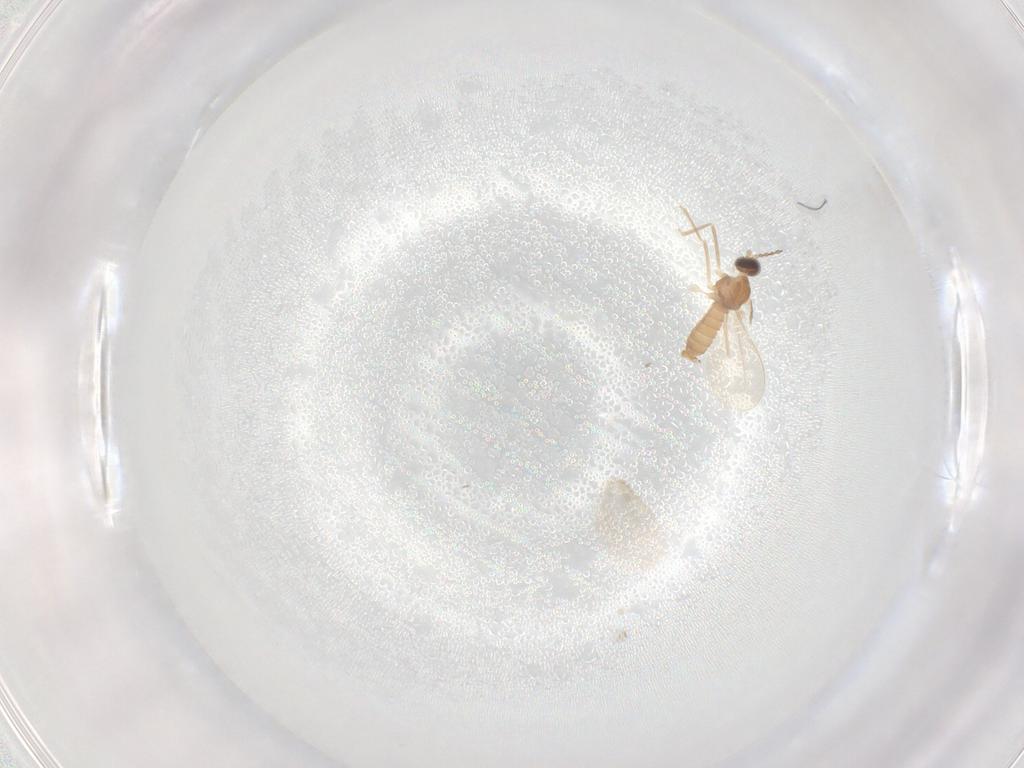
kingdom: Animalia
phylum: Arthropoda
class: Insecta
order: Diptera
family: Cecidomyiidae
